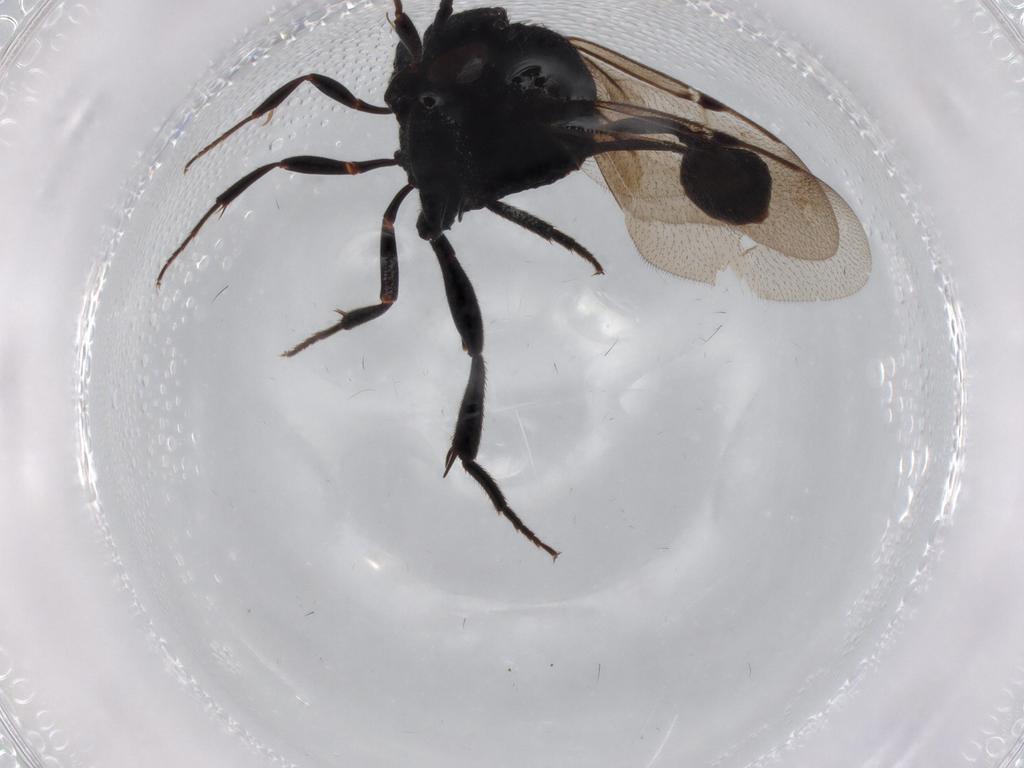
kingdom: Animalia
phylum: Arthropoda
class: Insecta
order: Hymenoptera
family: Evaniidae
